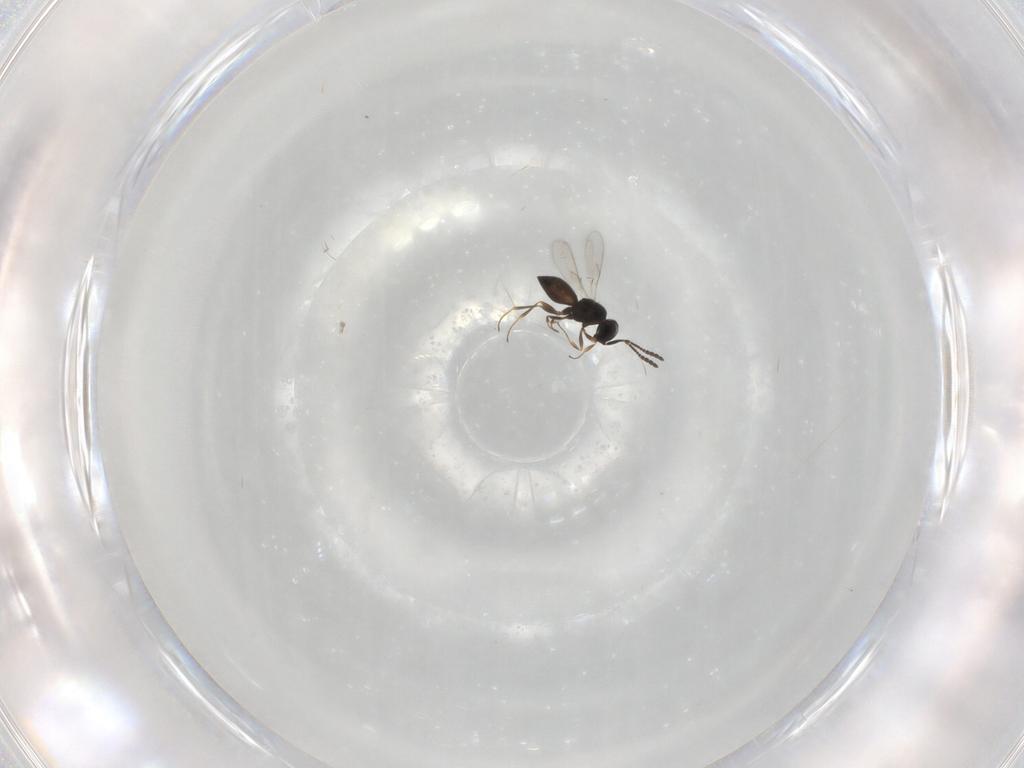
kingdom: Animalia
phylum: Arthropoda
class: Insecta
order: Hymenoptera
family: Scelionidae
